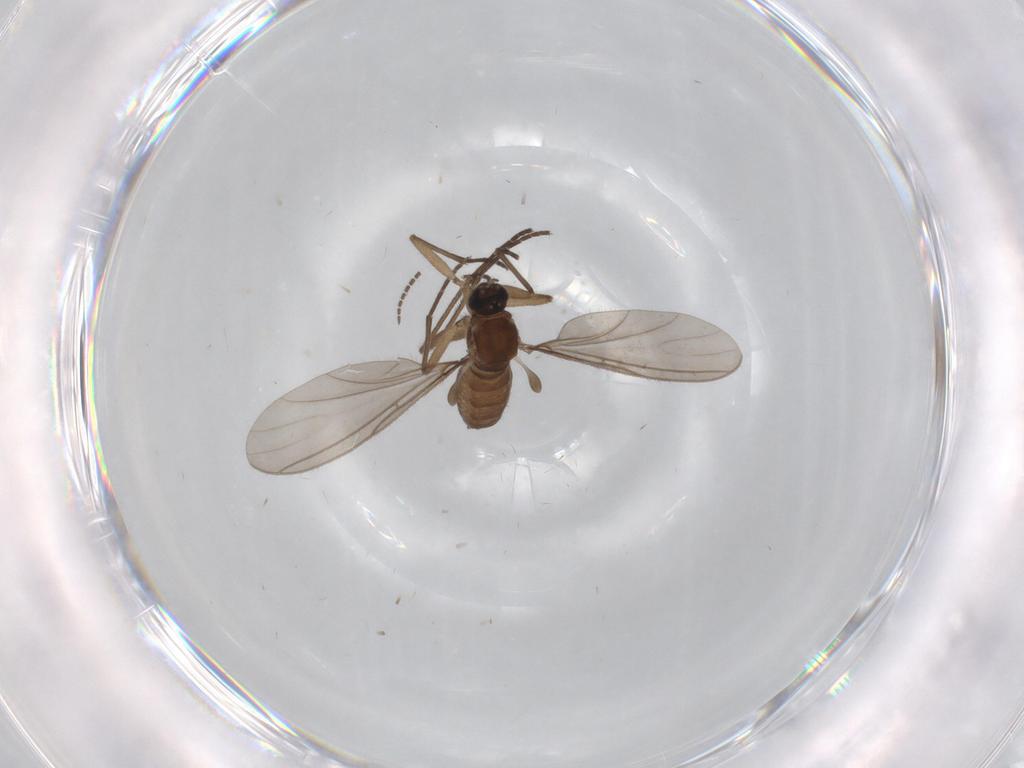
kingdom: Animalia
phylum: Arthropoda
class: Insecta
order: Diptera
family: Sciaridae
